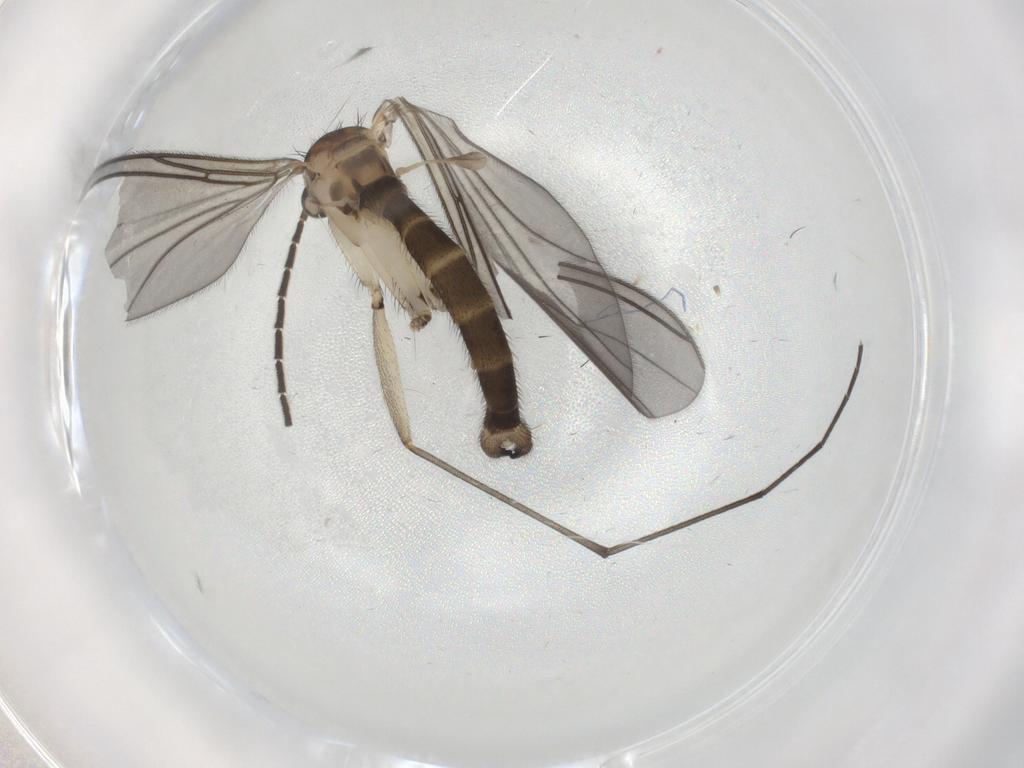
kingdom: Animalia
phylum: Arthropoda
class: Insecta
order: Diptera
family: Sciaridae
